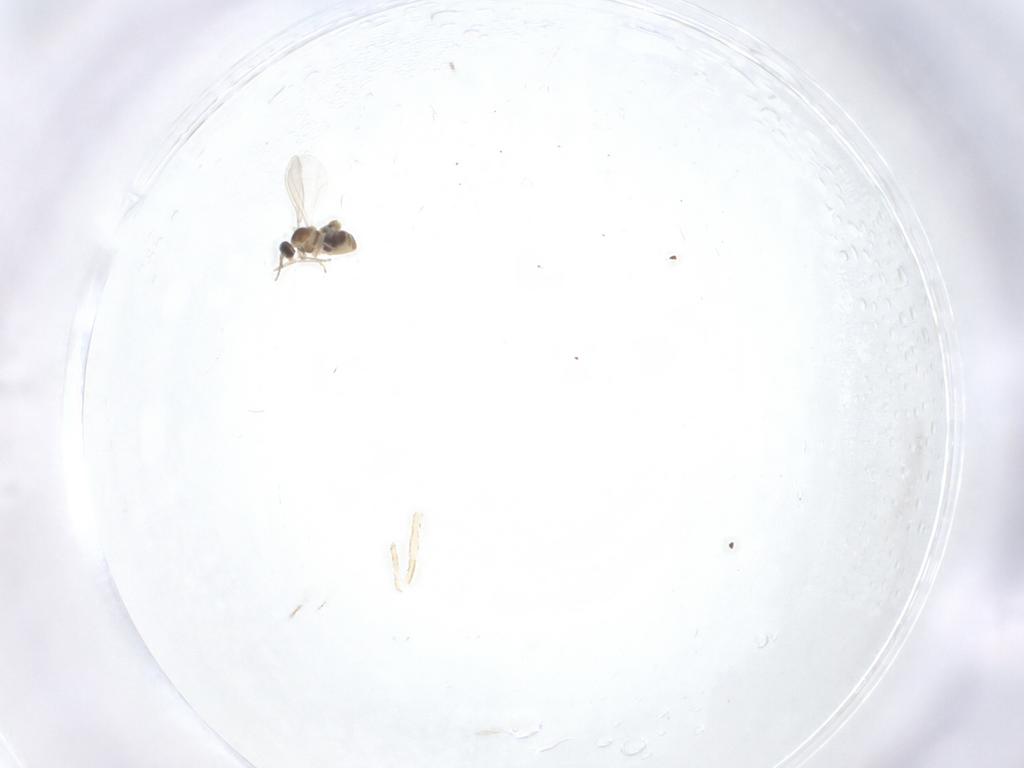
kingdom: Animalia
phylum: Arthropoda
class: Insecta
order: Diptera
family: Cecidomyiidae
